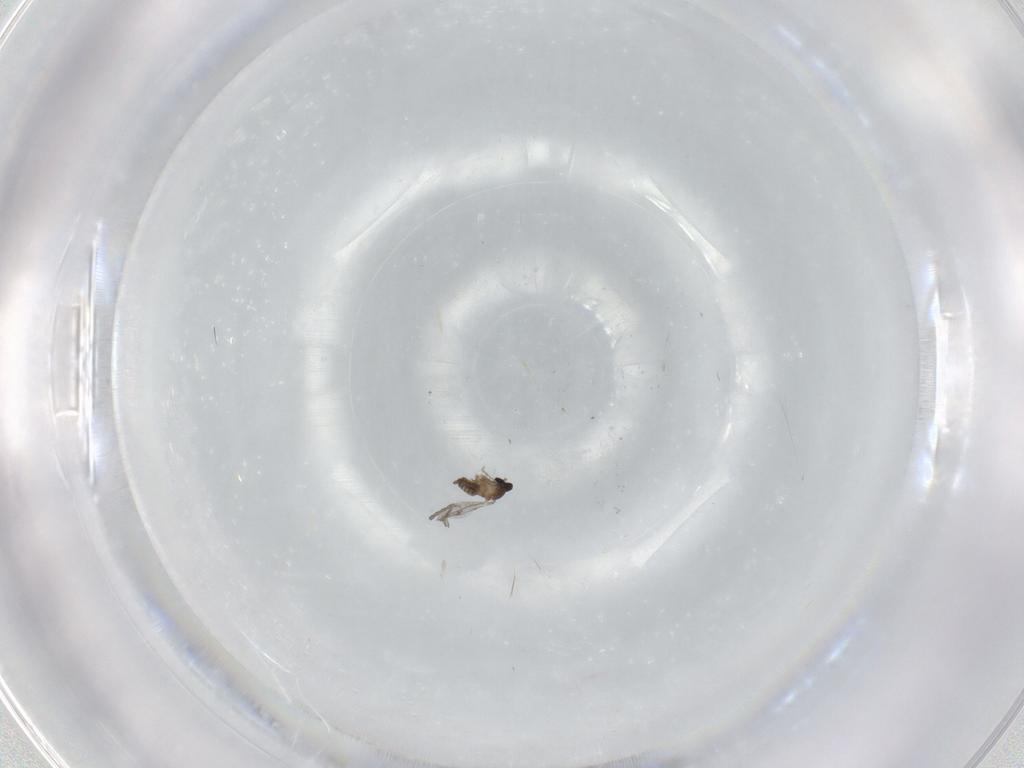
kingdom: Animalia
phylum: Arthropoda
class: Insecta
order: Diptera
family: Cecidomyiidae
